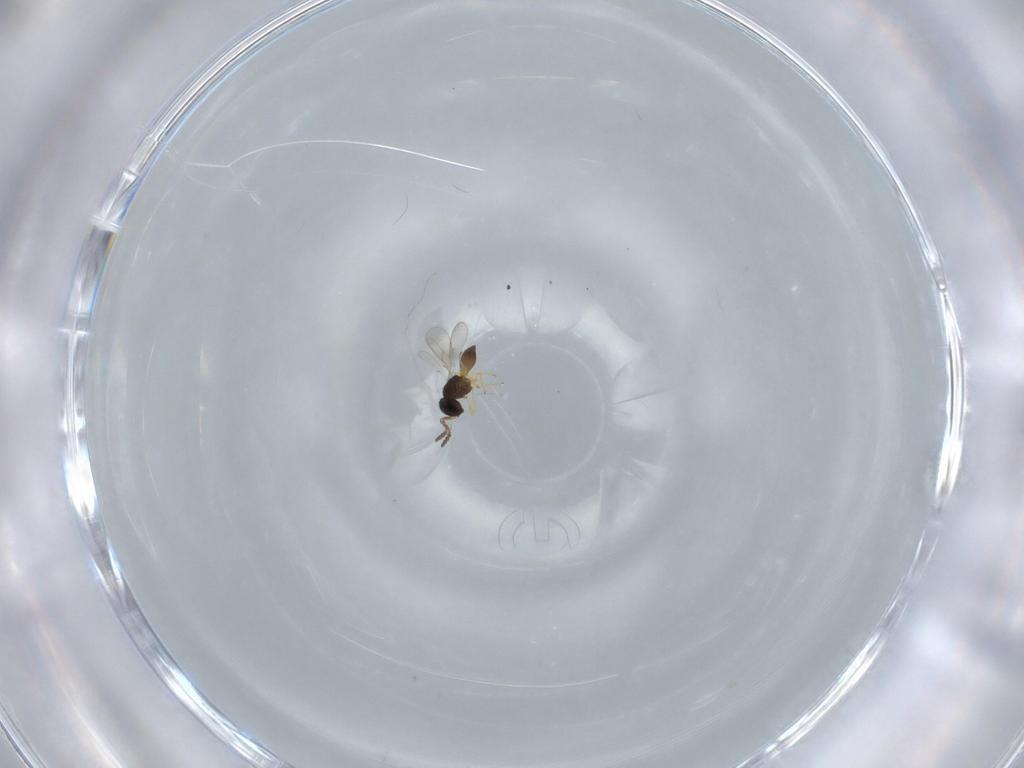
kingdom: Animalia
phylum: Arthropoda
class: Insecta
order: Hymenoptera
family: Scelionidae
